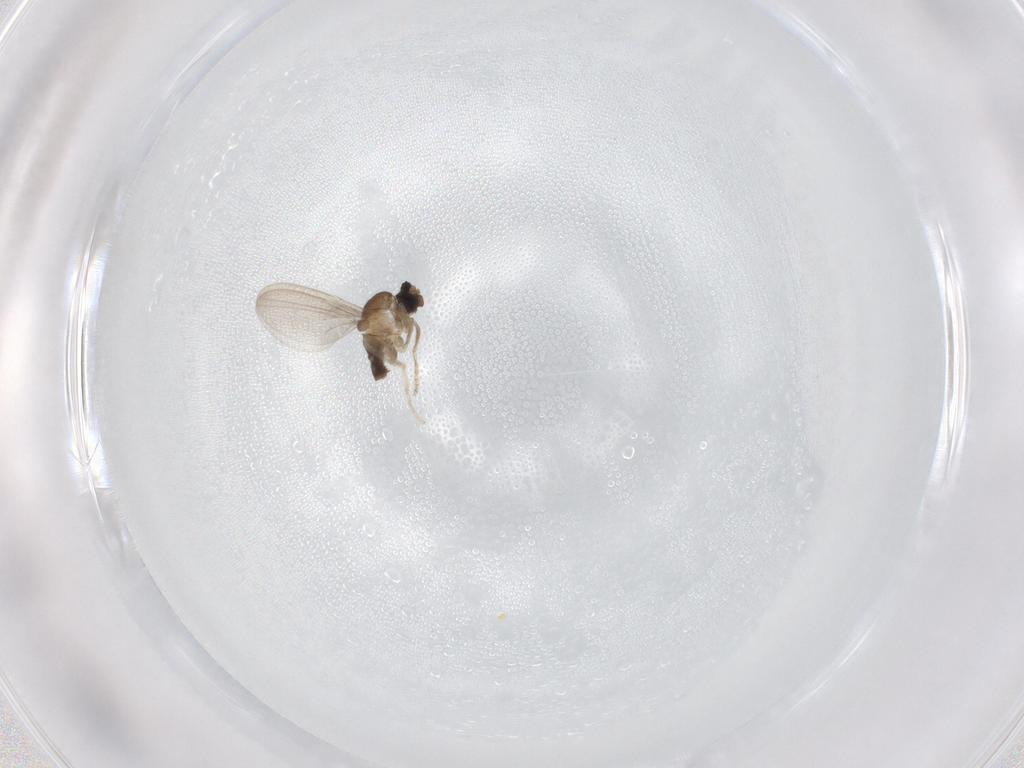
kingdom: Animalia
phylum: Arthropoda
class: Insecta
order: Diptera
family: Cecidomyiidae
